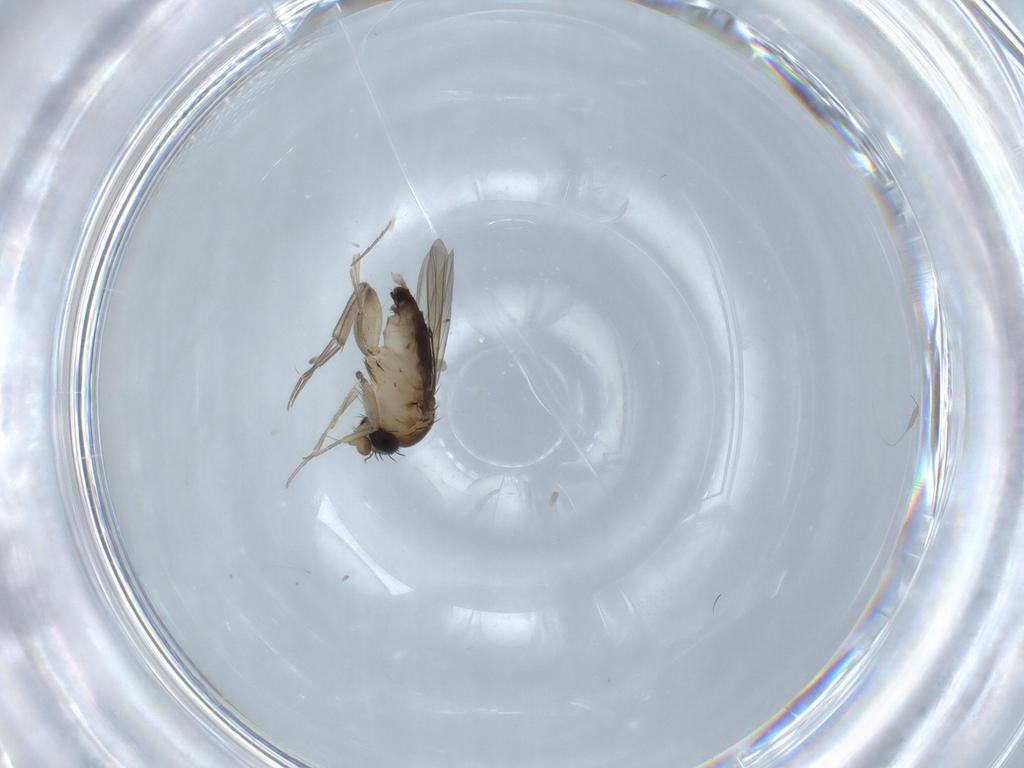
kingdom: Animalia
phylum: Arthropoda
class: Insecta
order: Diptera
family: Phoridae
